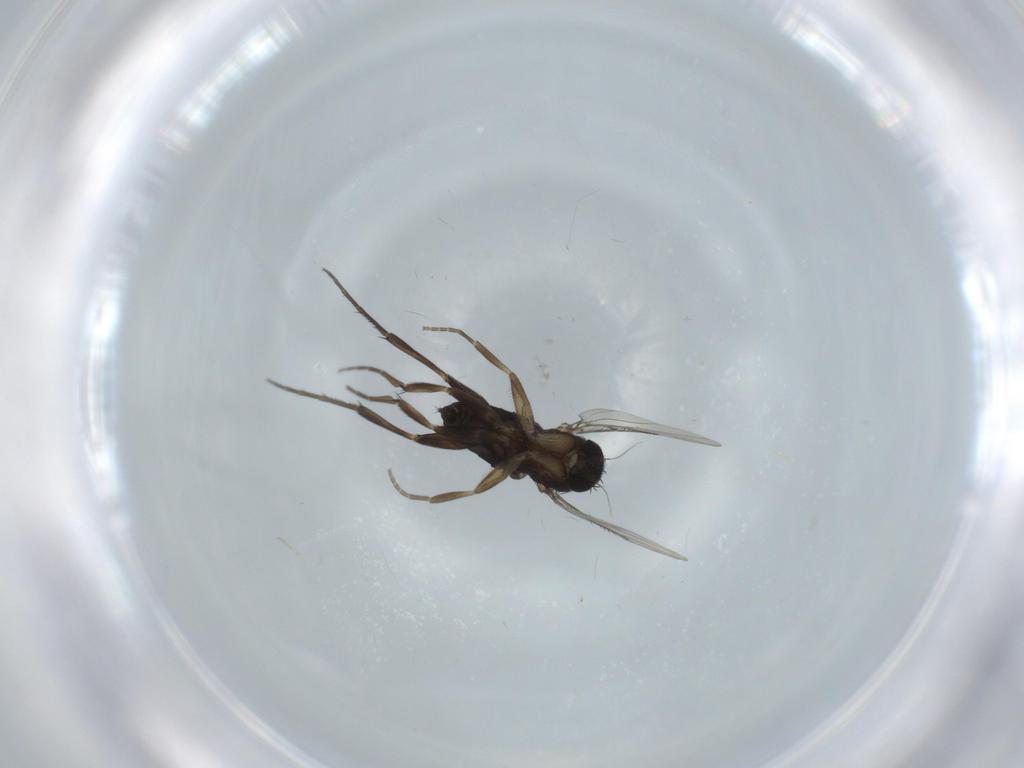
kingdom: Animalia
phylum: Arthropoda
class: Insecta
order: Diptera
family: Phoridae
